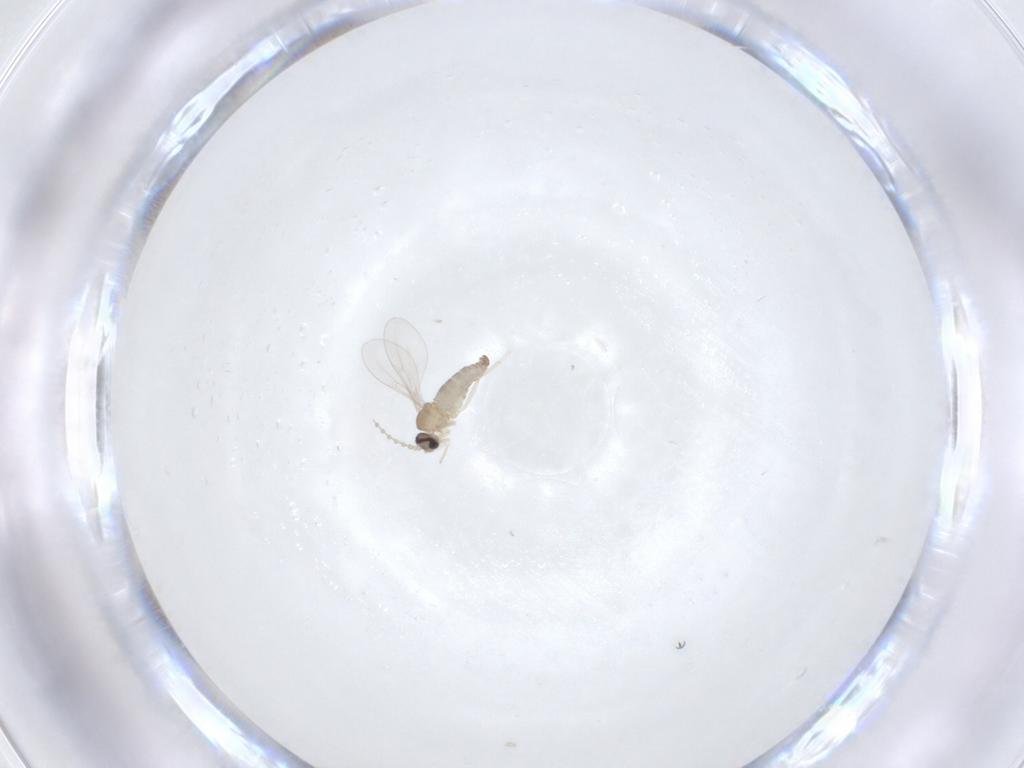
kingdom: Animalia
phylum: Arthropoda
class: Insecta
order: Diptera
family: Cecidomyiidae
